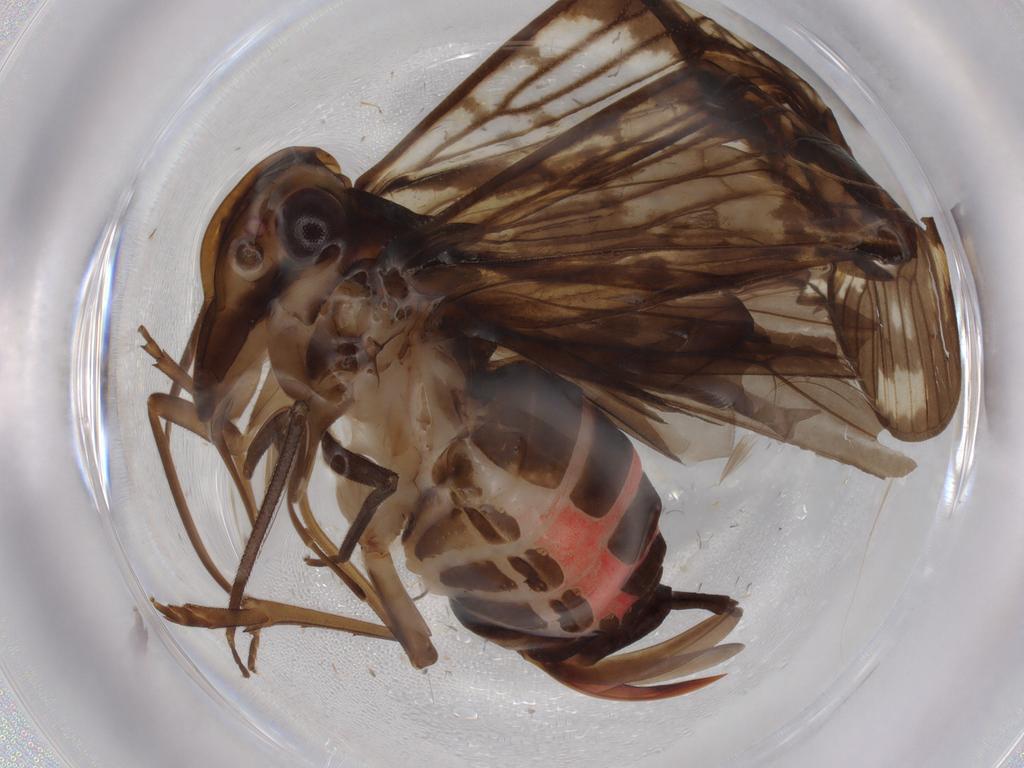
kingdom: Animalia
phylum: Arthropoda
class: Insecta
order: Hemiptera
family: Cixiidae
